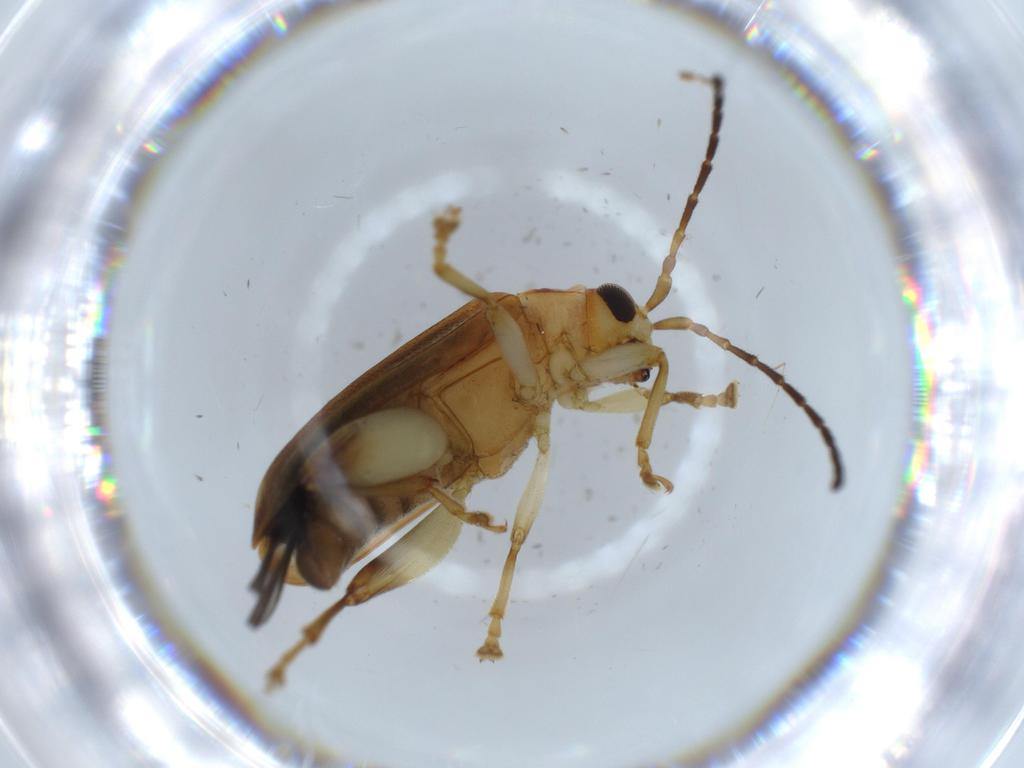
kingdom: Animalia
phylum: Arthropoda
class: Insecta
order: Coleoptera
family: Chrysomelidae
